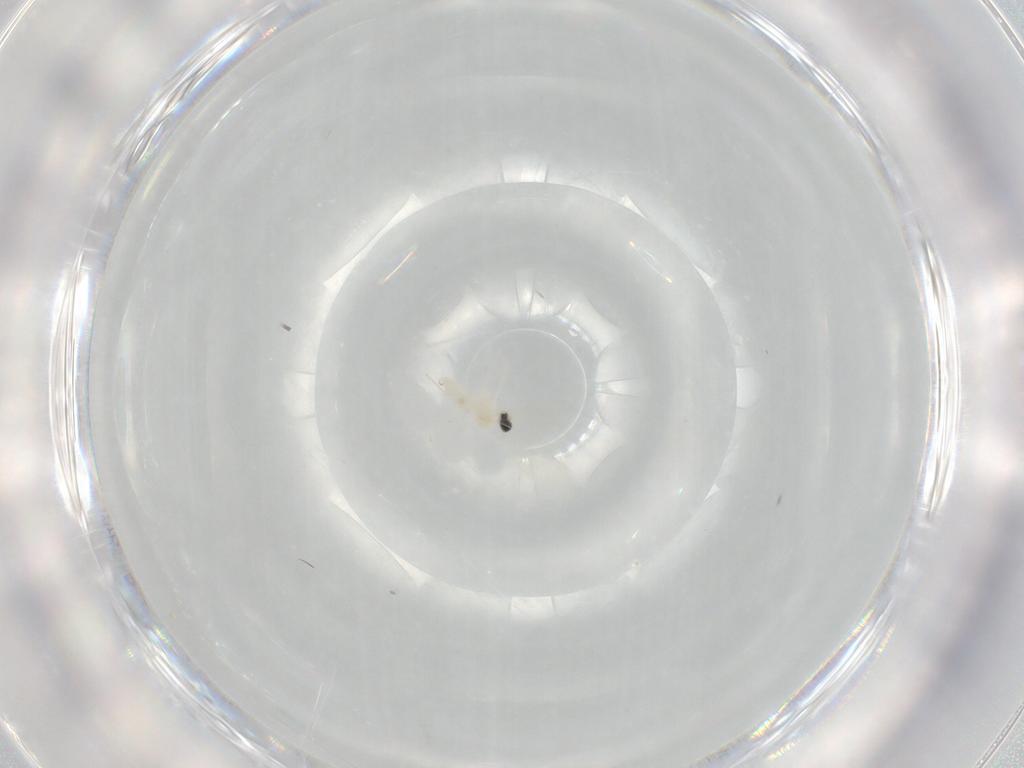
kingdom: Animalia
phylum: Arthropoda
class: Insecta
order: Diptera
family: Cecidomyiidae
